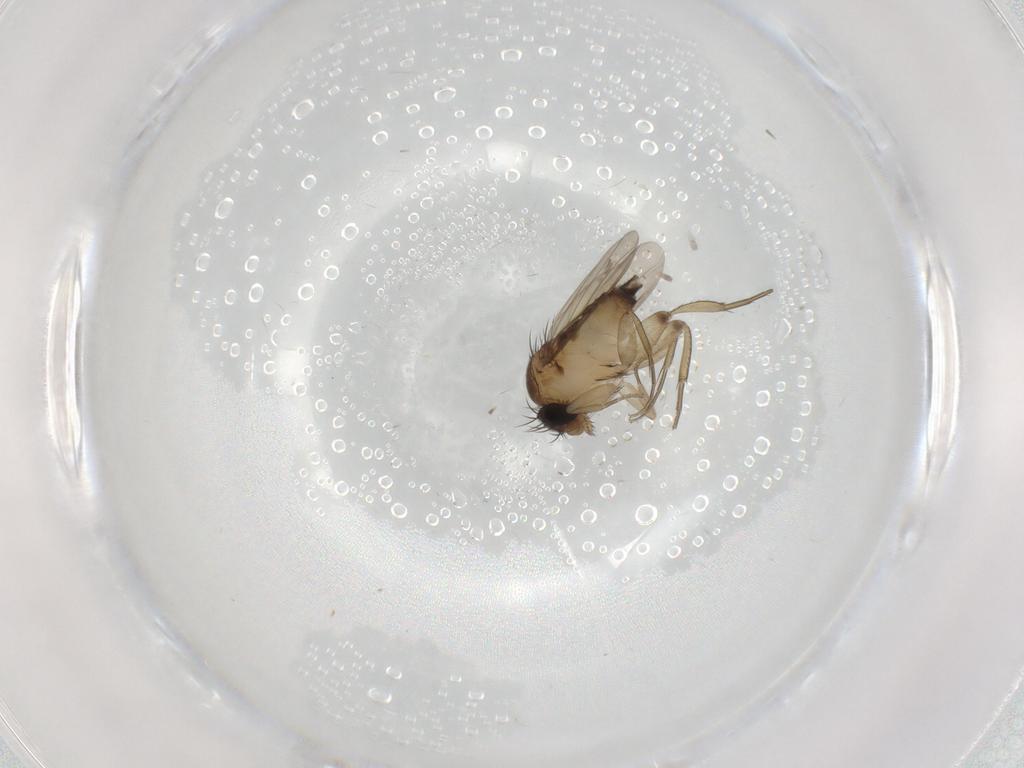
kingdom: Animalia
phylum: Arthropoda
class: Insecta
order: Diptera
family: Phoridae
